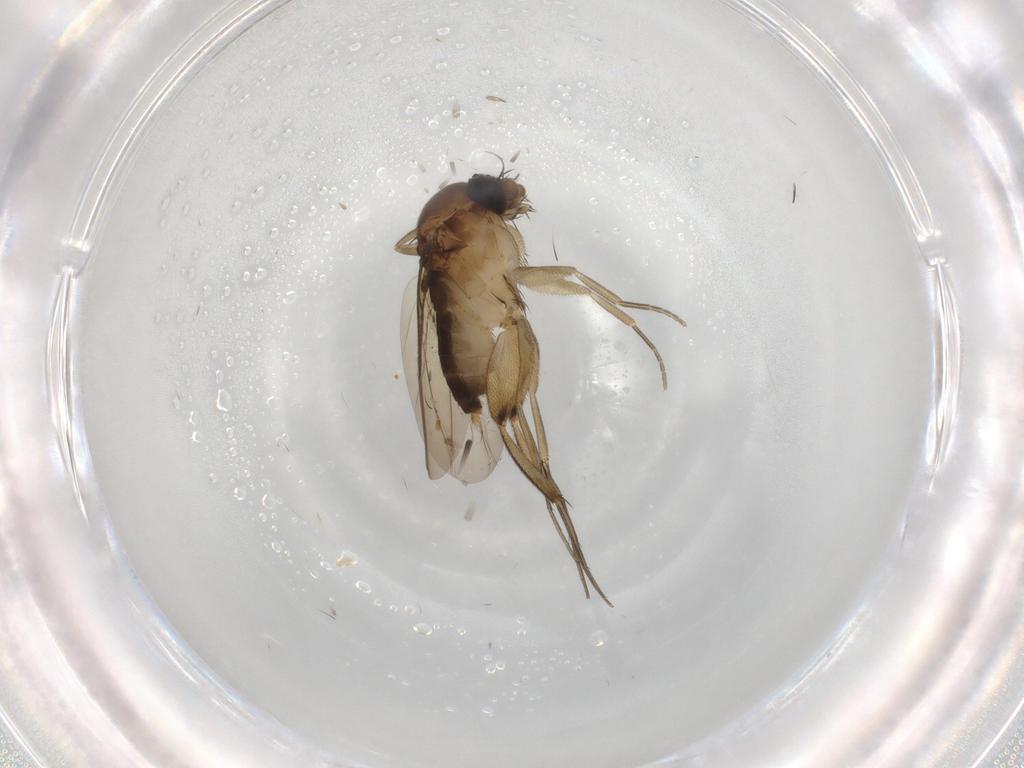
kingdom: Animalia
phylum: Arthropoda
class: Insecta
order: Diptera
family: Phoridae
